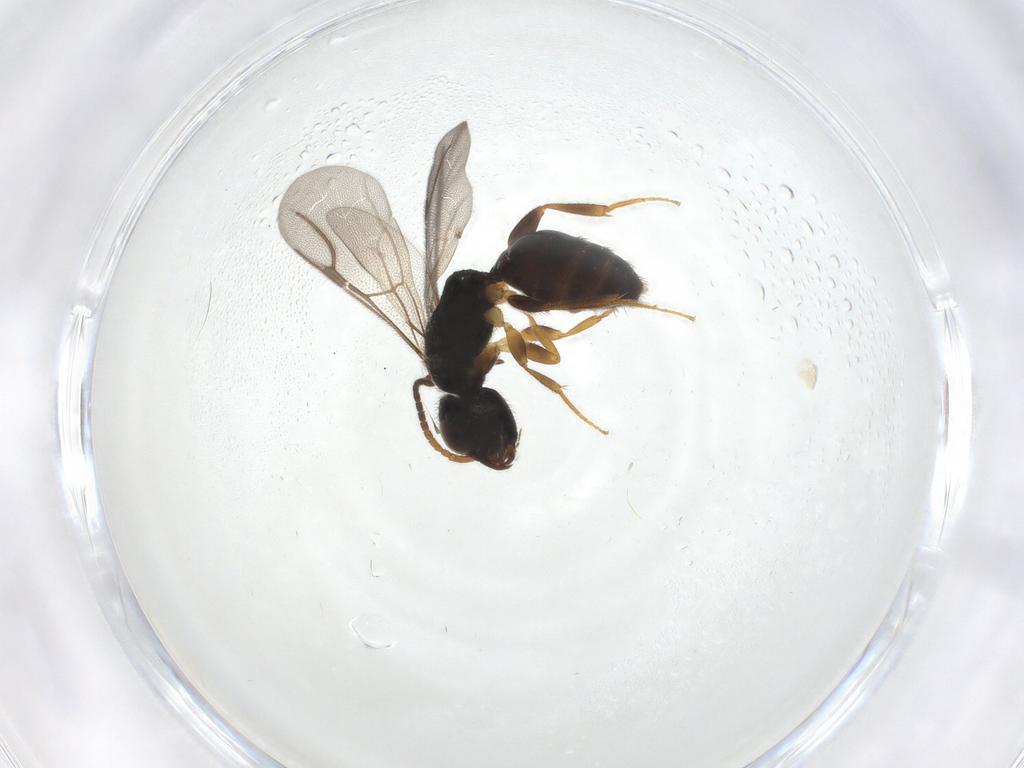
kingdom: Animalia
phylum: Arthropoda
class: Insecta
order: Hymenoptera
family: Bethylidae
